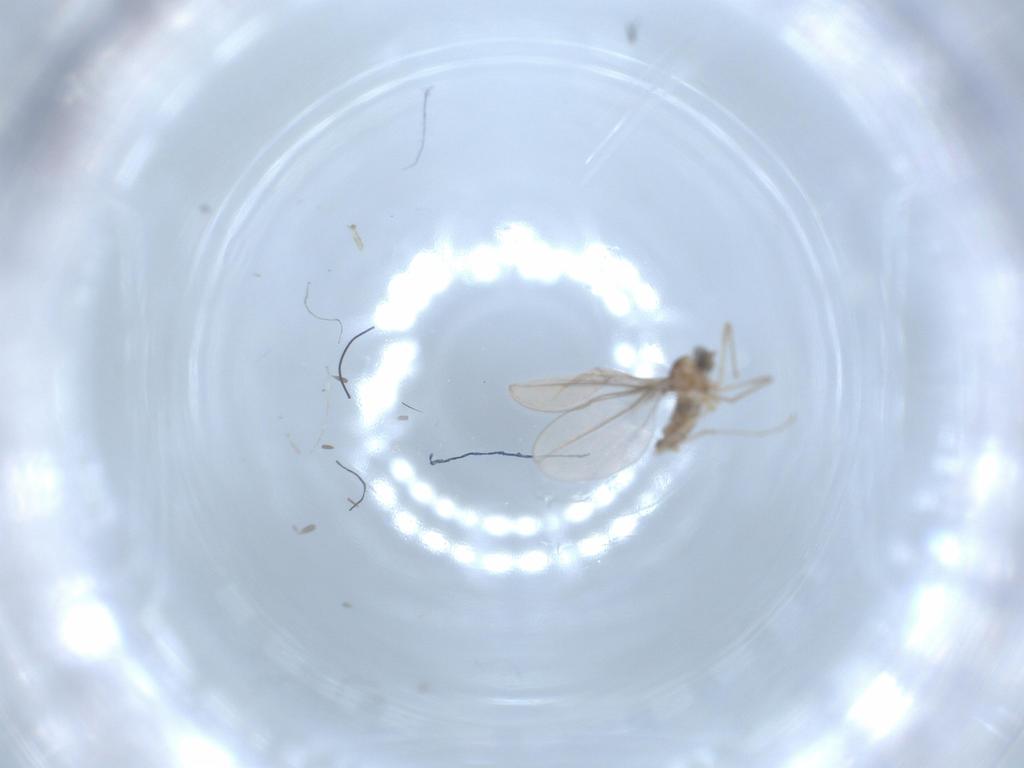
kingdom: Animalia
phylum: Arthropoda
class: Insecta
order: Diptera
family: Cecidomyiidae
